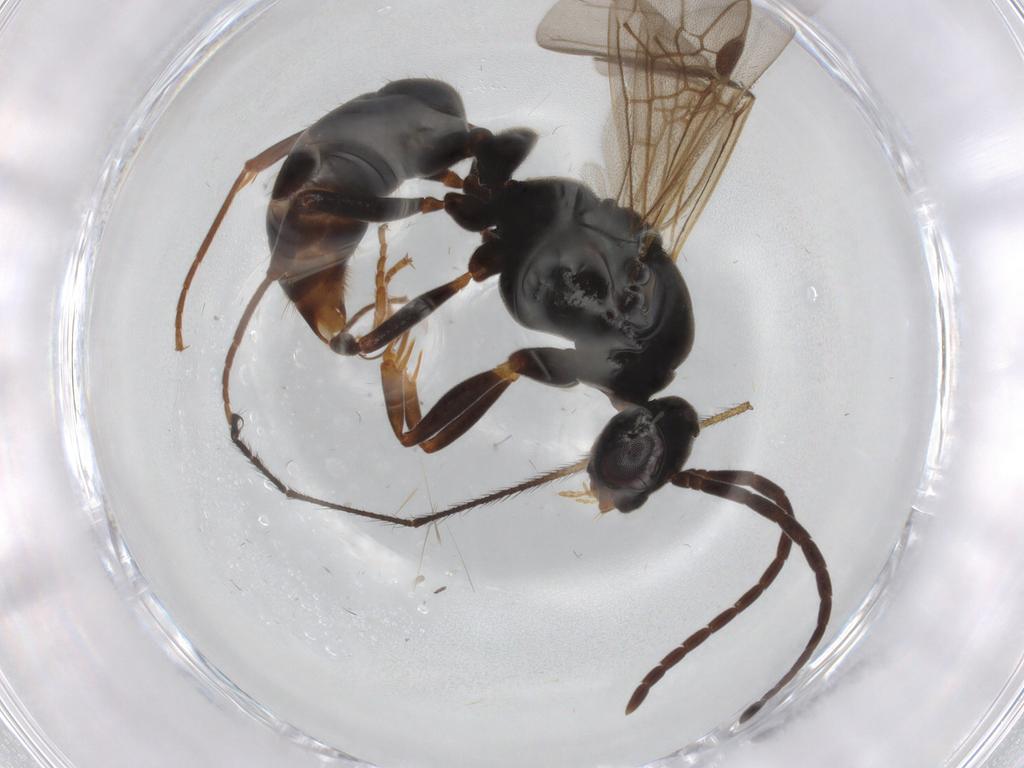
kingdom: Animalia
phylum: Arthropoda
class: Insecta
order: Hymenoptera
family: Formicidae
